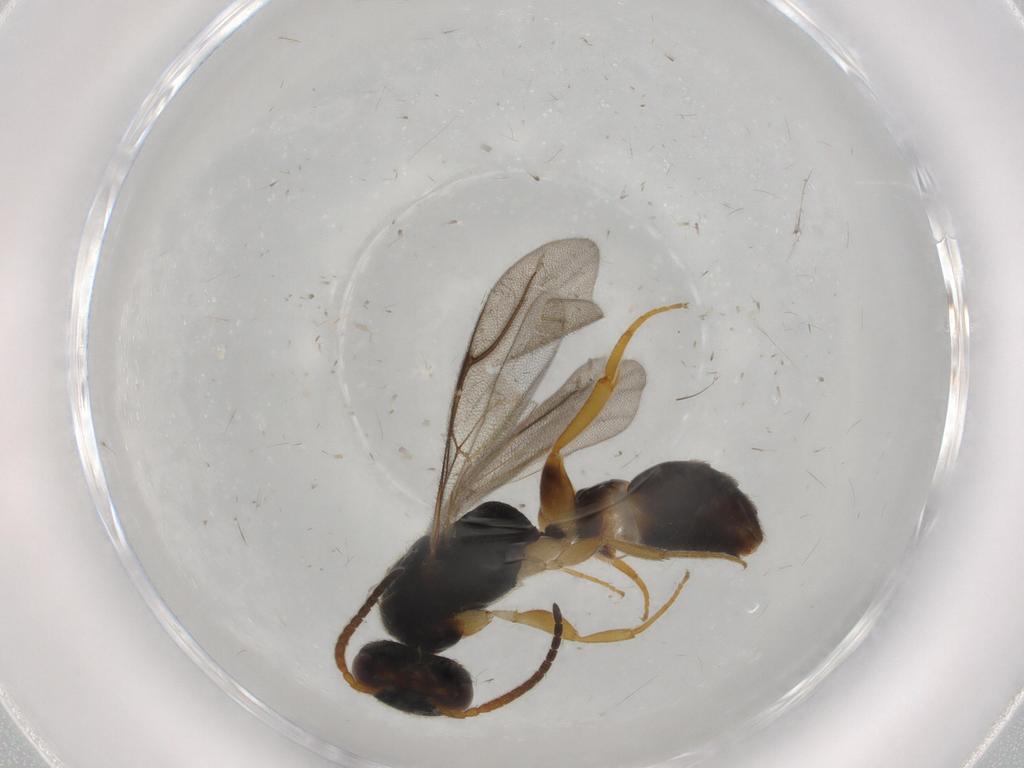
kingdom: Animalia
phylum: Arthropoda
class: Insecta
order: Hymenoptera
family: Bethylidae
